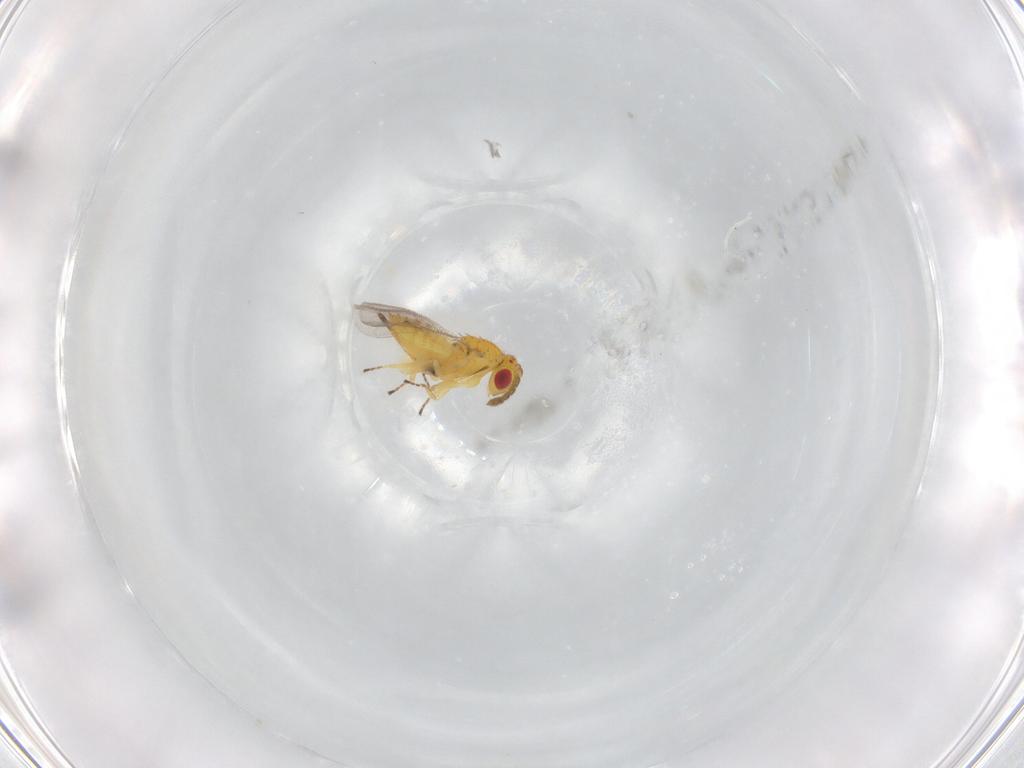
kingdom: Animalia
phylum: Arthropoda
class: Insecta
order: Hymenoptera
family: Eulophidae
